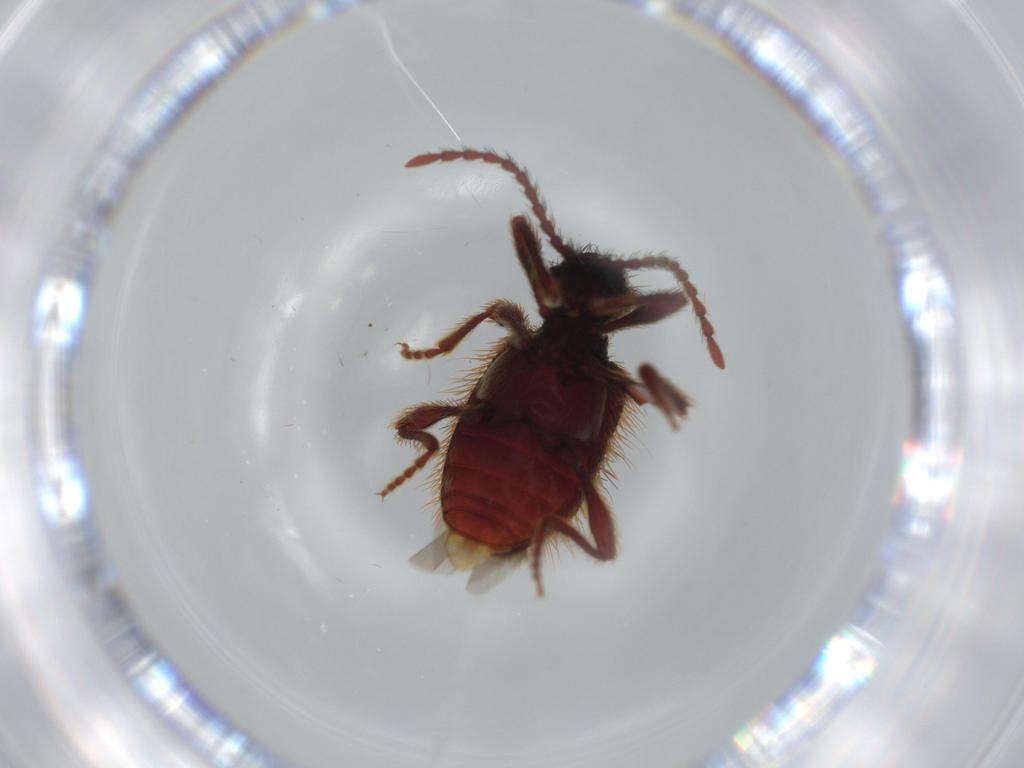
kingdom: Animalia
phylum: Arthropoda
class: Insecta
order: Coleoptera
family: Ptinidae
